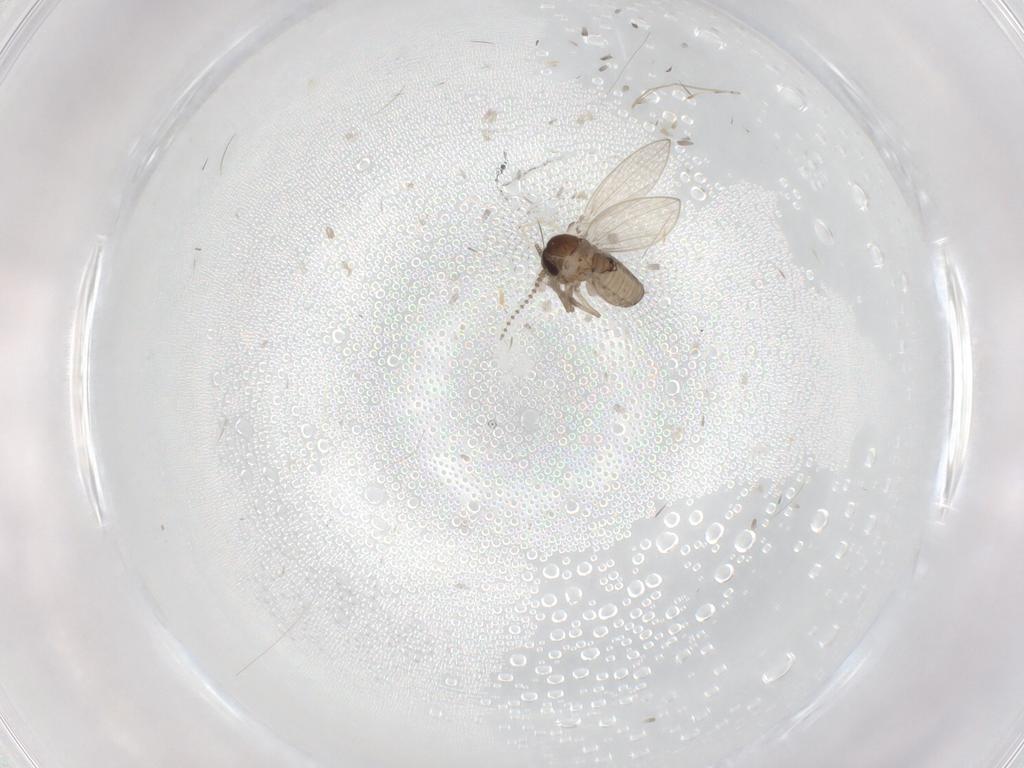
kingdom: Animalia
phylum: Arthropoda
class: Insecta
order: Diptera
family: Psychodidae
